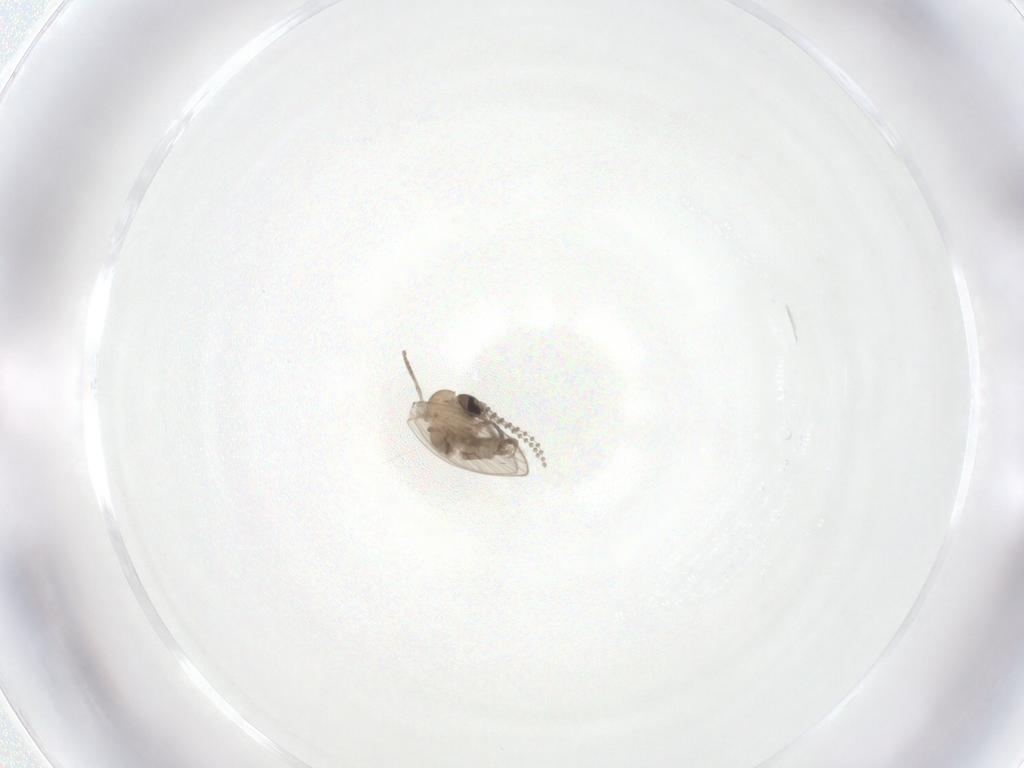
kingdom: Animalia
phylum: Arthropoda
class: Insecta
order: Diptera
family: Psychodidae
